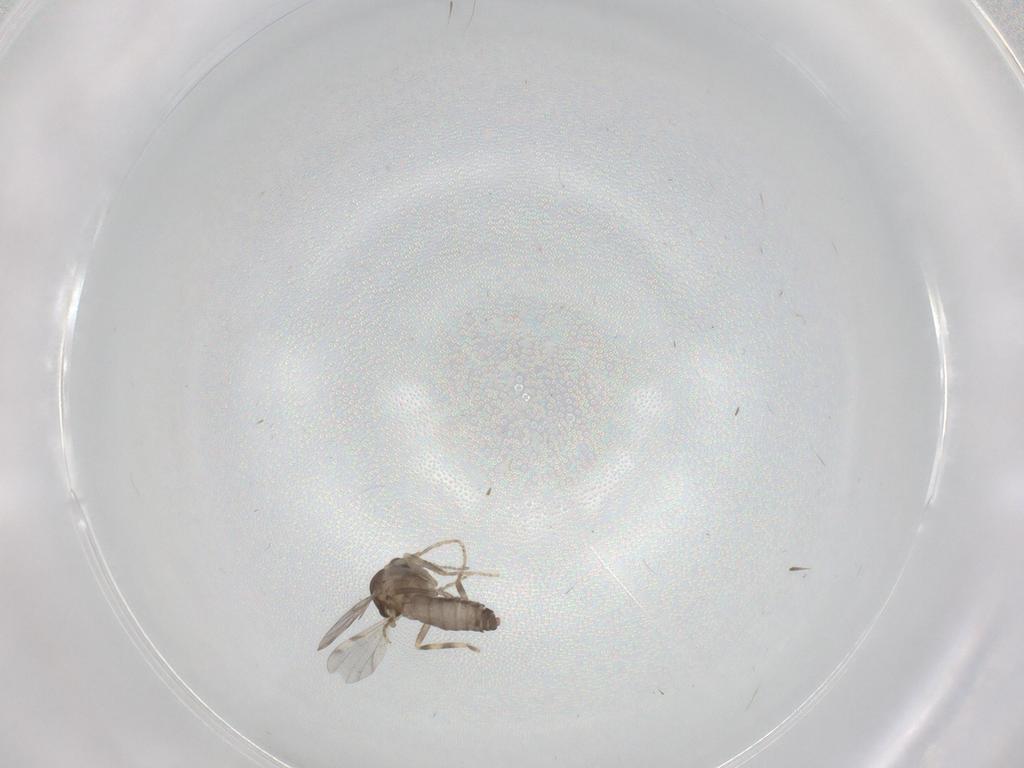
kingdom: Animalia
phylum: Arthropoda
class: Insecta
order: Diptera
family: Ceratopogonidae
